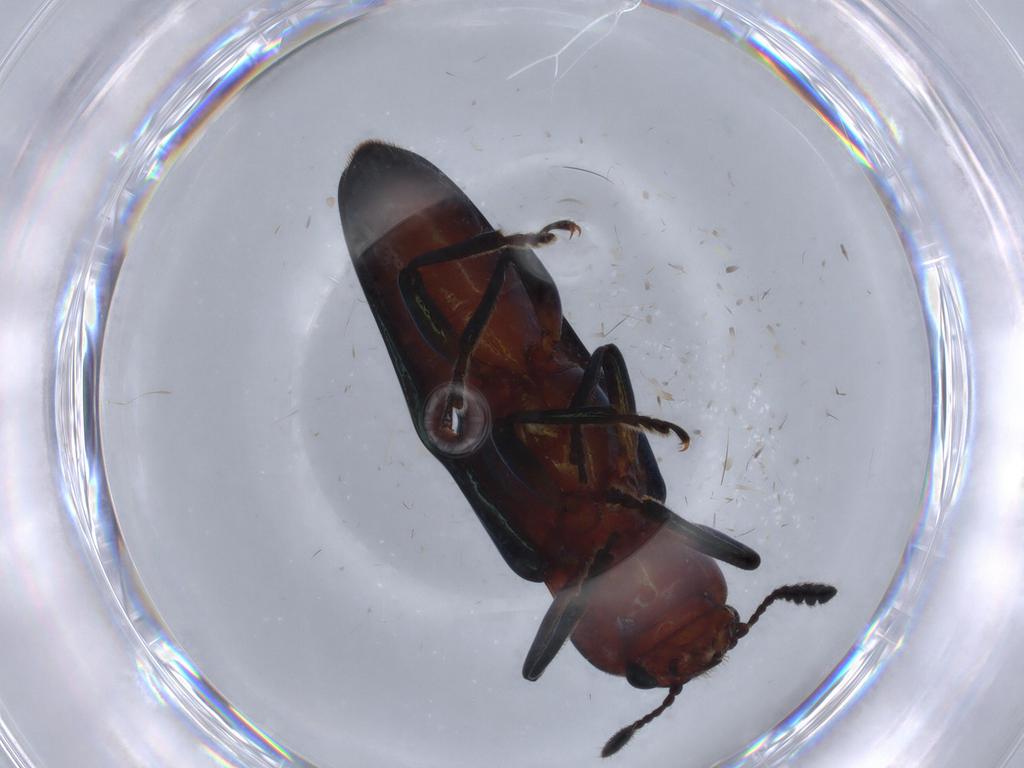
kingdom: Animalia
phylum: Arthropoda
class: Insecta
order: Coleoptera
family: Erotylidae
